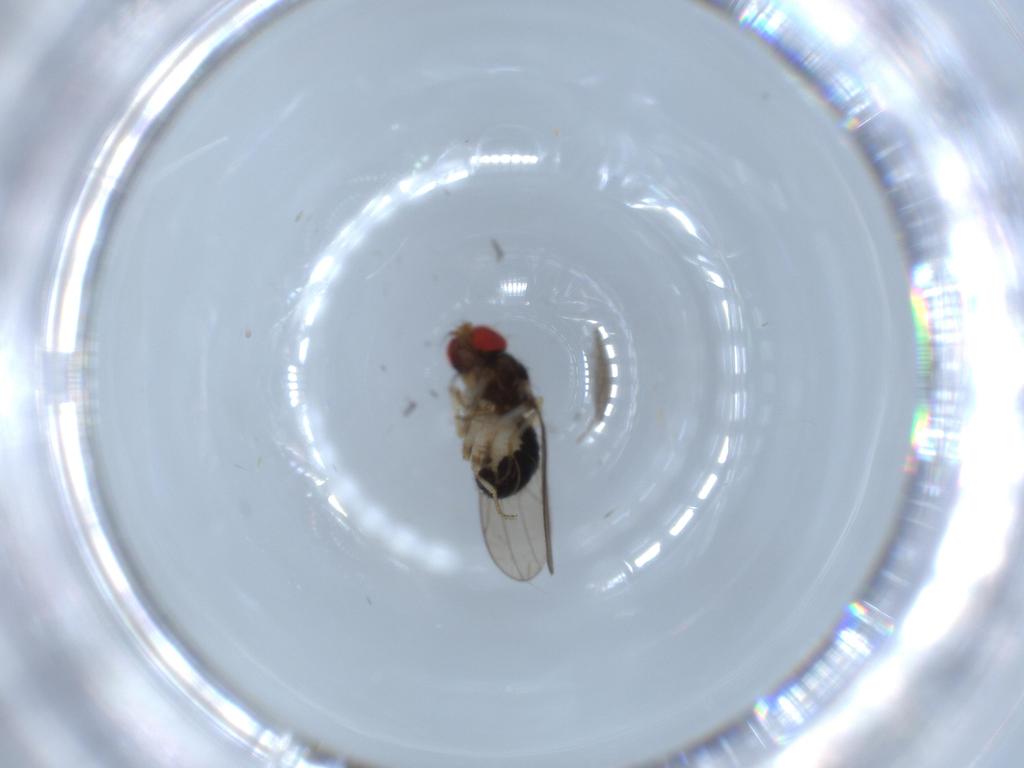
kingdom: Animalia
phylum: Arthropoda
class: Insecta
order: Diptera
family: Drosophilidae
